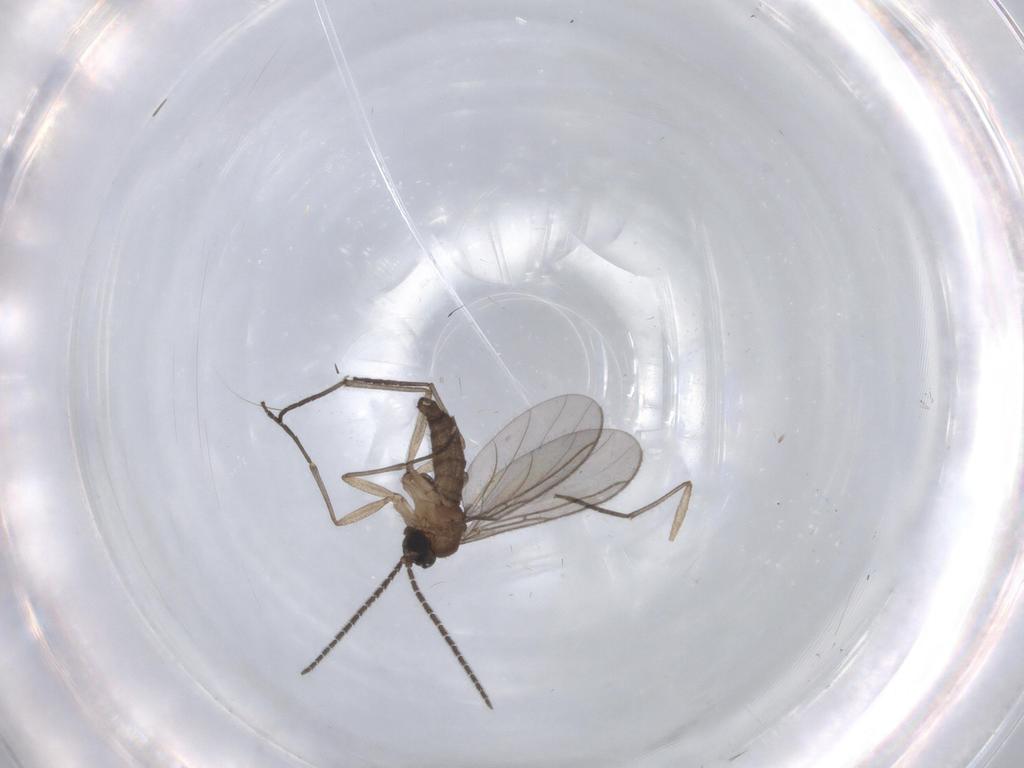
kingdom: Animalia
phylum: Arthropoda
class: Insecta
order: Diptera
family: Sciaridae
